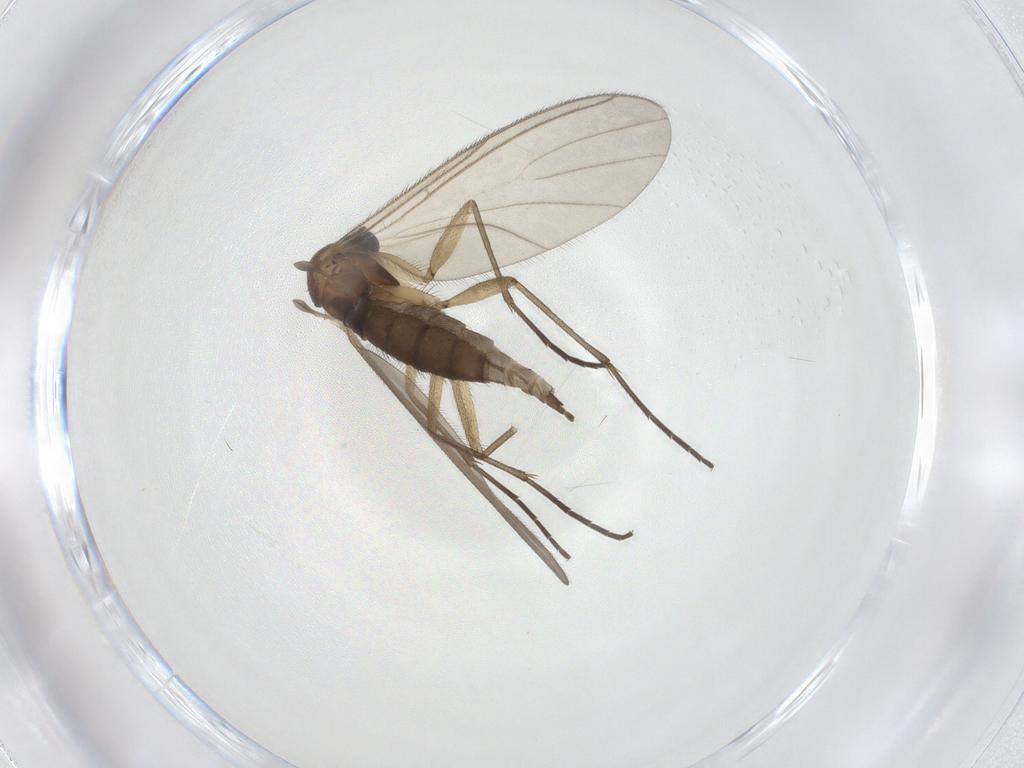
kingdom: Animalia
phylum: Arthropoda
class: Insecta
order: Diptera
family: Sciaridae
